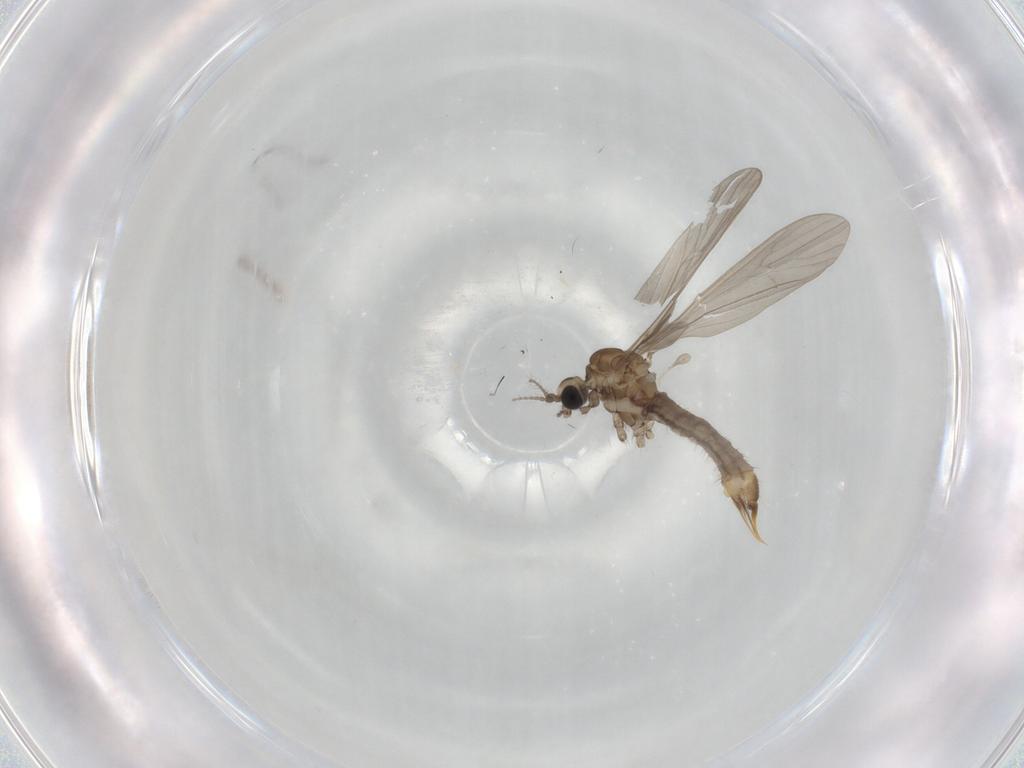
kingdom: Animalia
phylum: Arthropoda
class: Insecta
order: Diptera
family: Limoniidae
